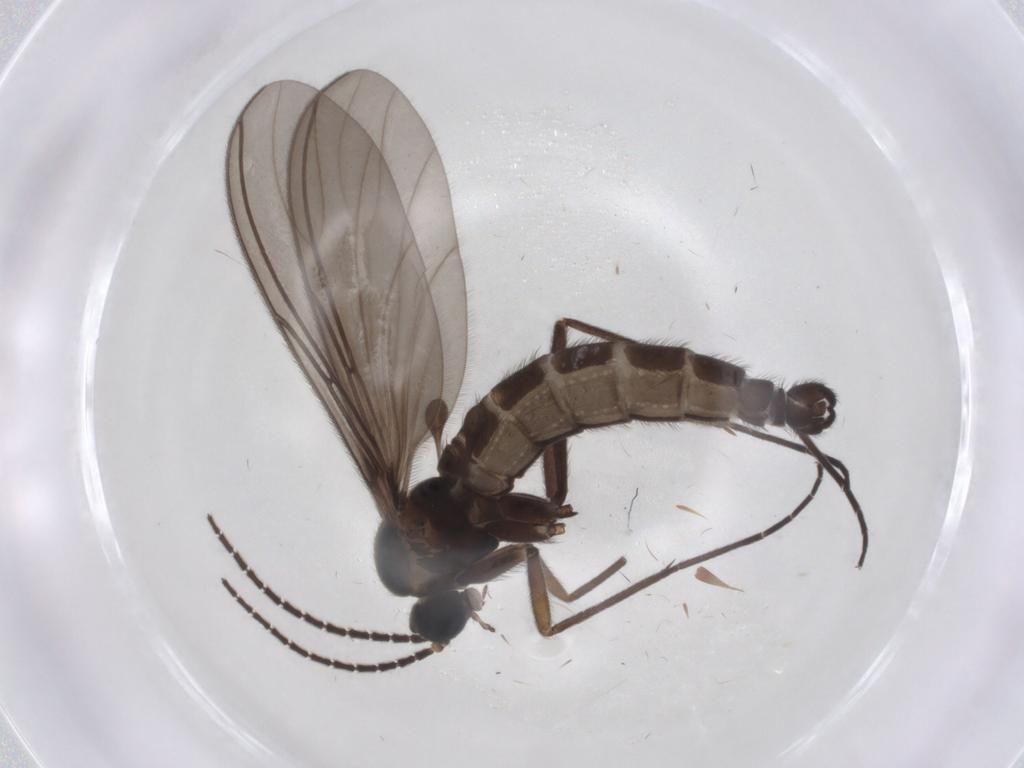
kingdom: Animalia
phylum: Arthropoda
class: Insecta
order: Diptera
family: Sciaridae
